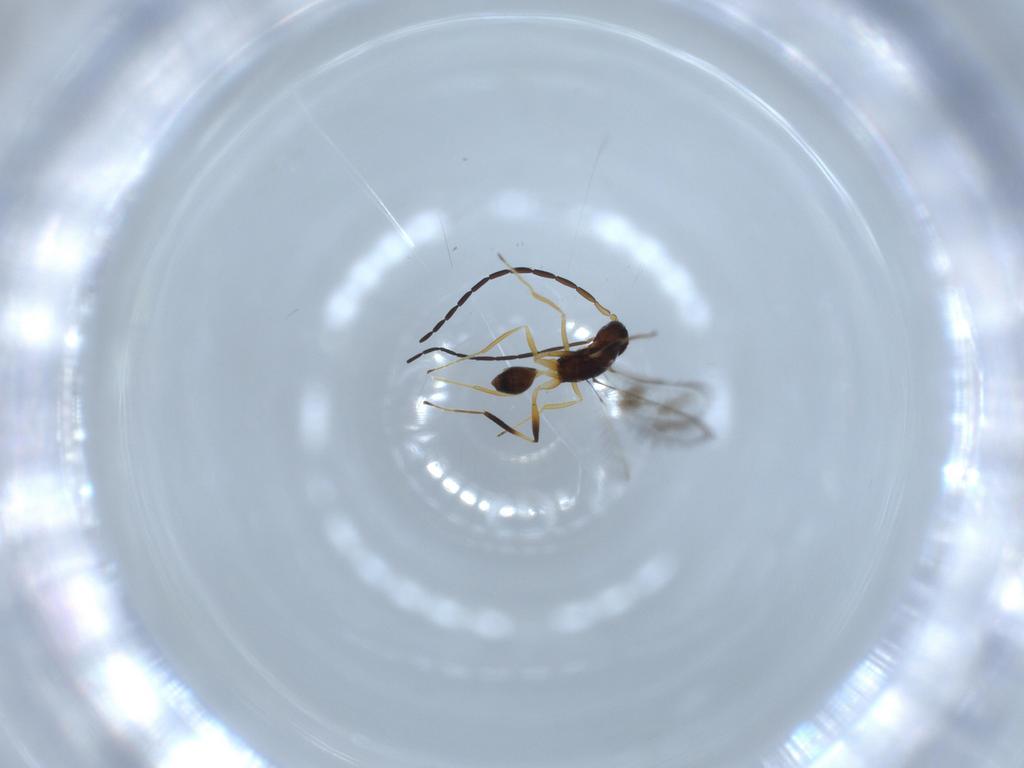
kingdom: Animalia
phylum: Arthropoda
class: Insecta
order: Hymenoptera
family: Mymaridae
